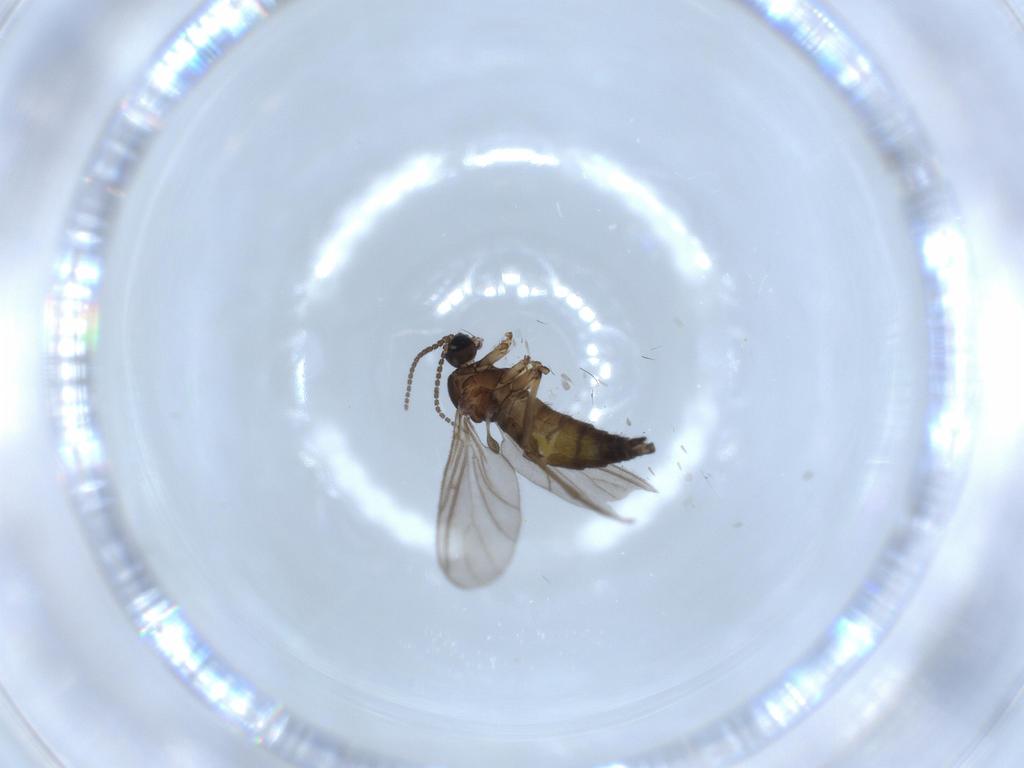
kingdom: Animalia
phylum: Arthropoda
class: Insecta
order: Diptera
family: Sciaridae
